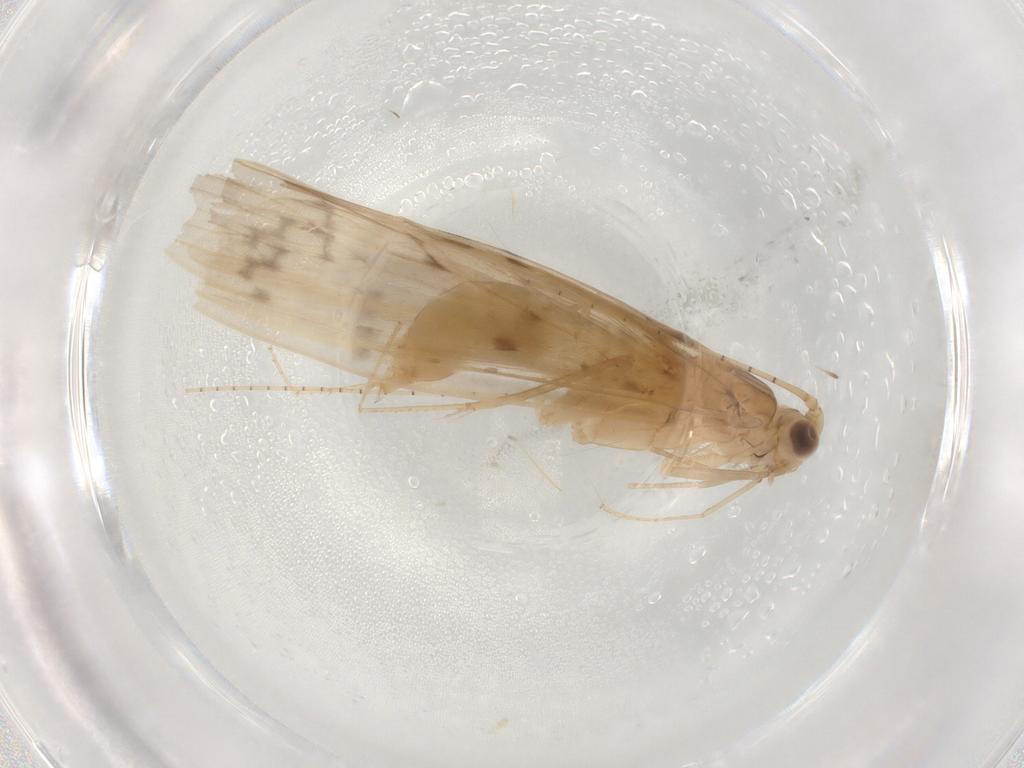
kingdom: Animalia
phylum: Arthropoda
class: Insecta
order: Trichoptera
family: Leptoceridae
